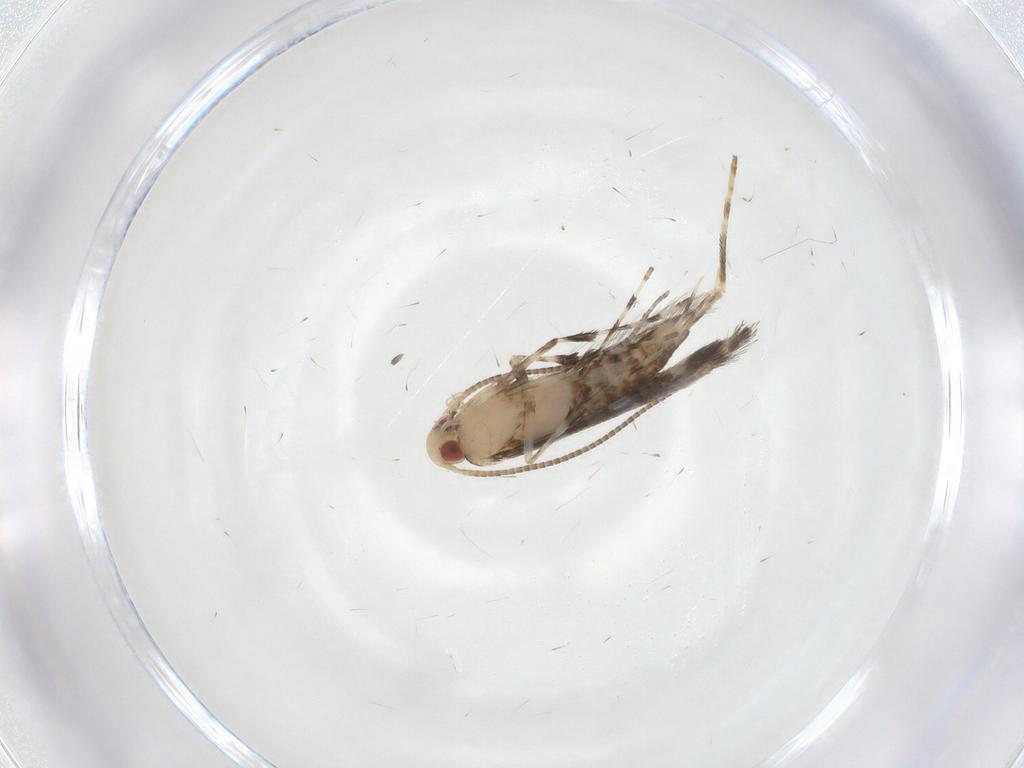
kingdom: Animalia
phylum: Arthropoda
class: Insecta
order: Lepidoptera
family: Gracillariidae
